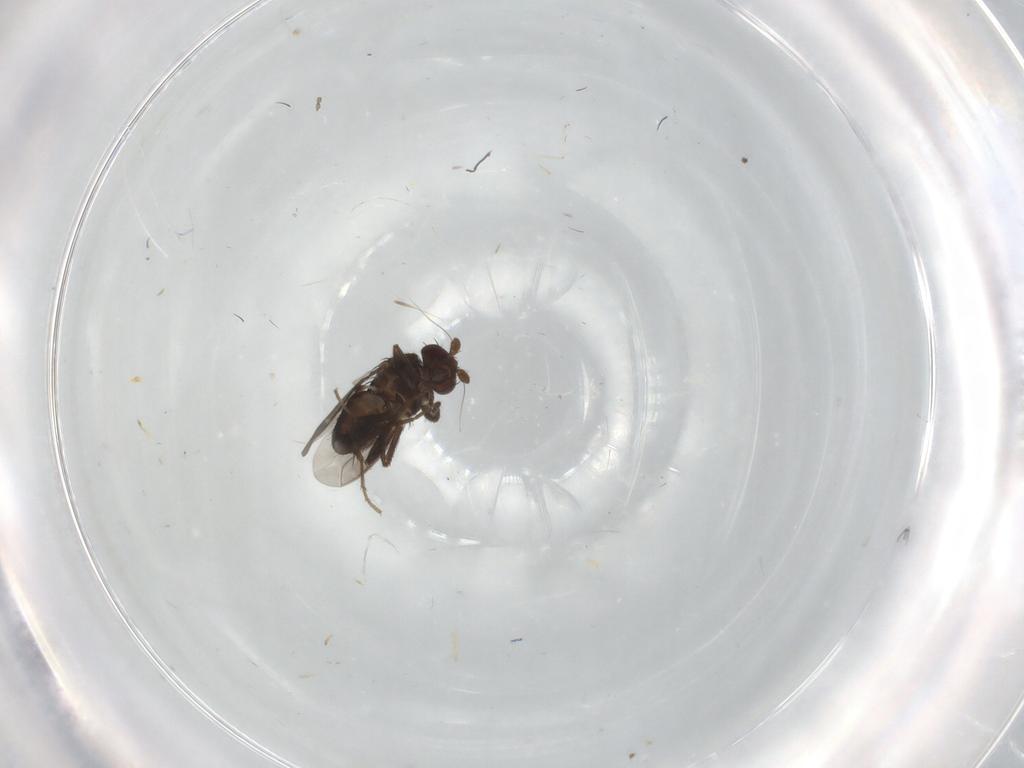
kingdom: Animalia
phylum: Arthropoda
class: Insecta
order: Diptera
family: Sphaeroceridae
